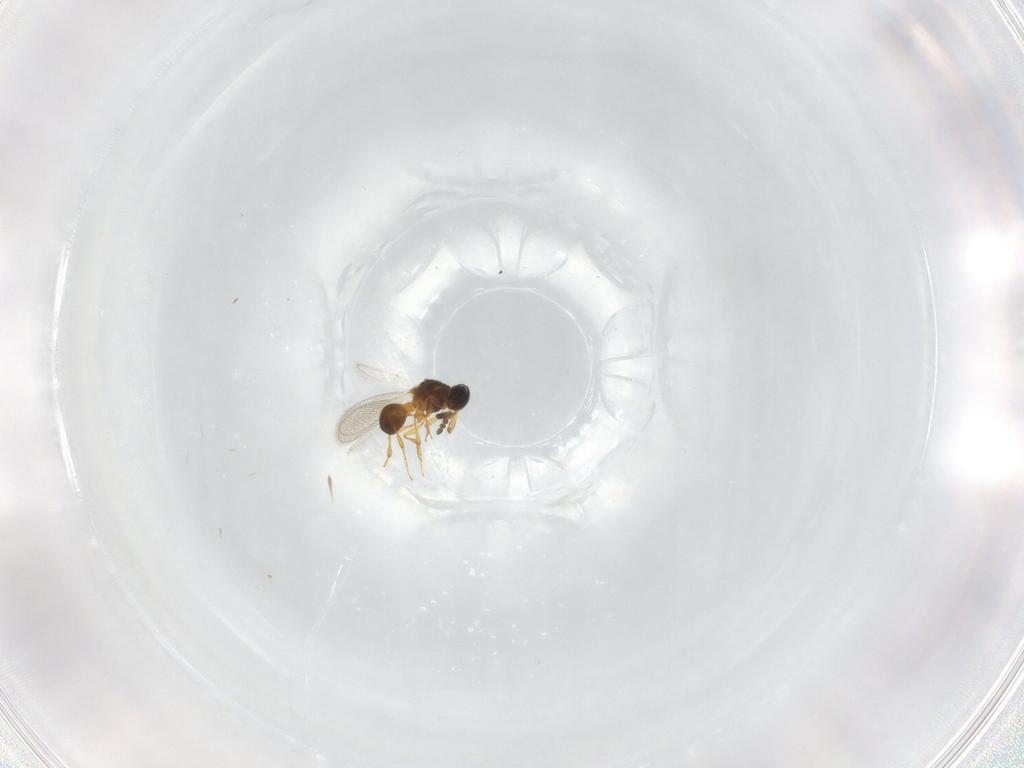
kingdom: Animalia
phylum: Arthropoda
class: Insecta
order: Hymenoptera
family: Platygastridae
